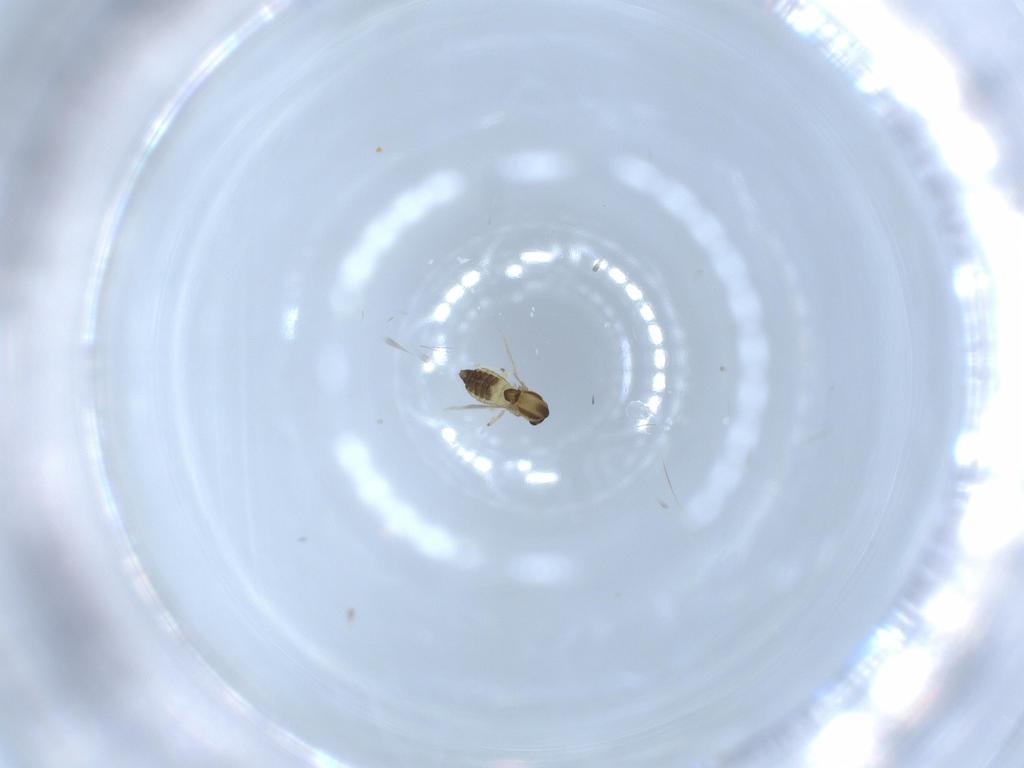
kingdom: Animalia
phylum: Arthropoda
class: Insecta
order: Diptera
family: Chironomidae
